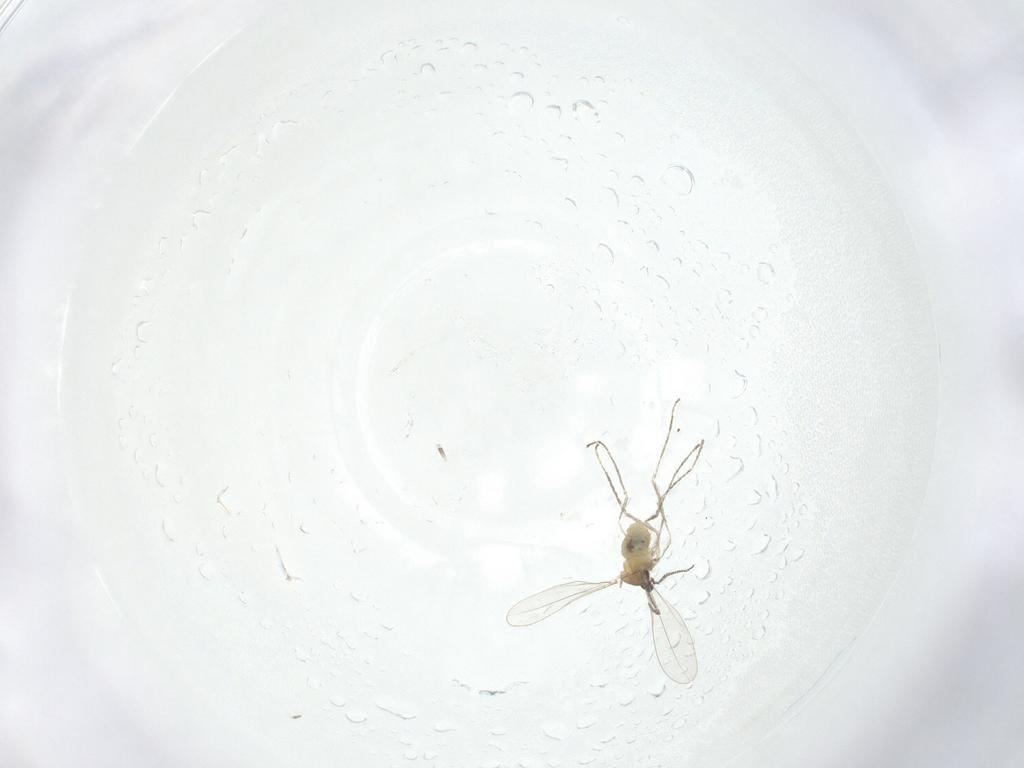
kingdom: Animalia
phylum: Arthropoda
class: Insecta
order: Diptera
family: Cecidomyiidae
